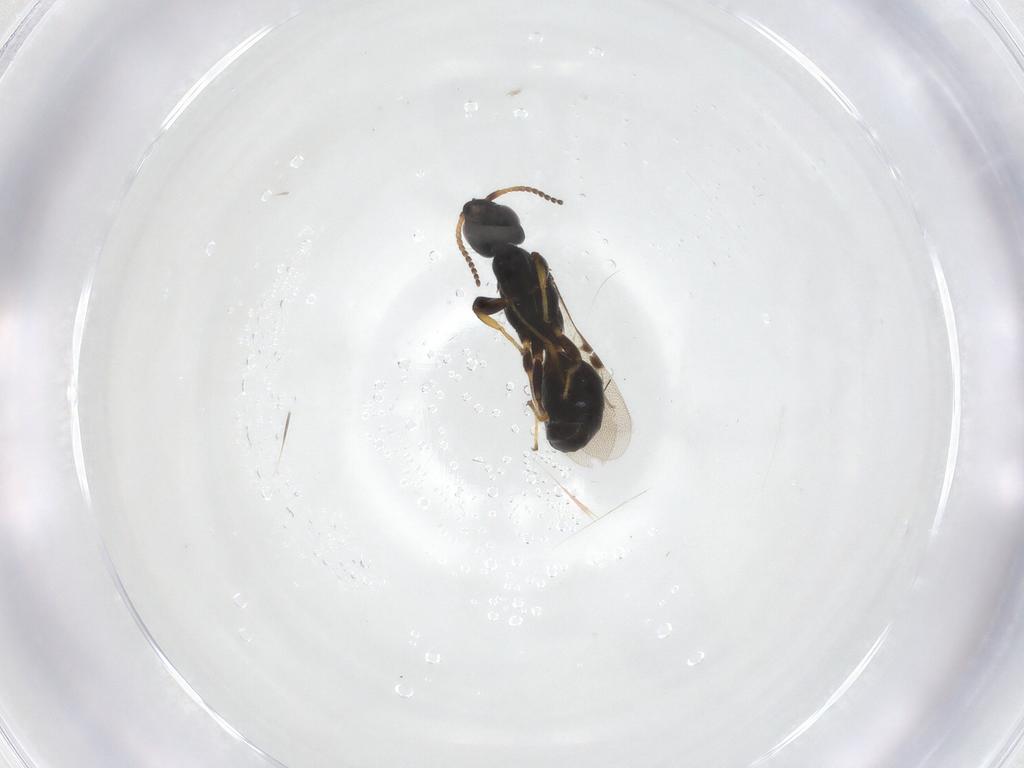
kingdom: Animalia
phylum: Arthropoda
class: Insecta
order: Hymenoptera
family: Bethylidae
